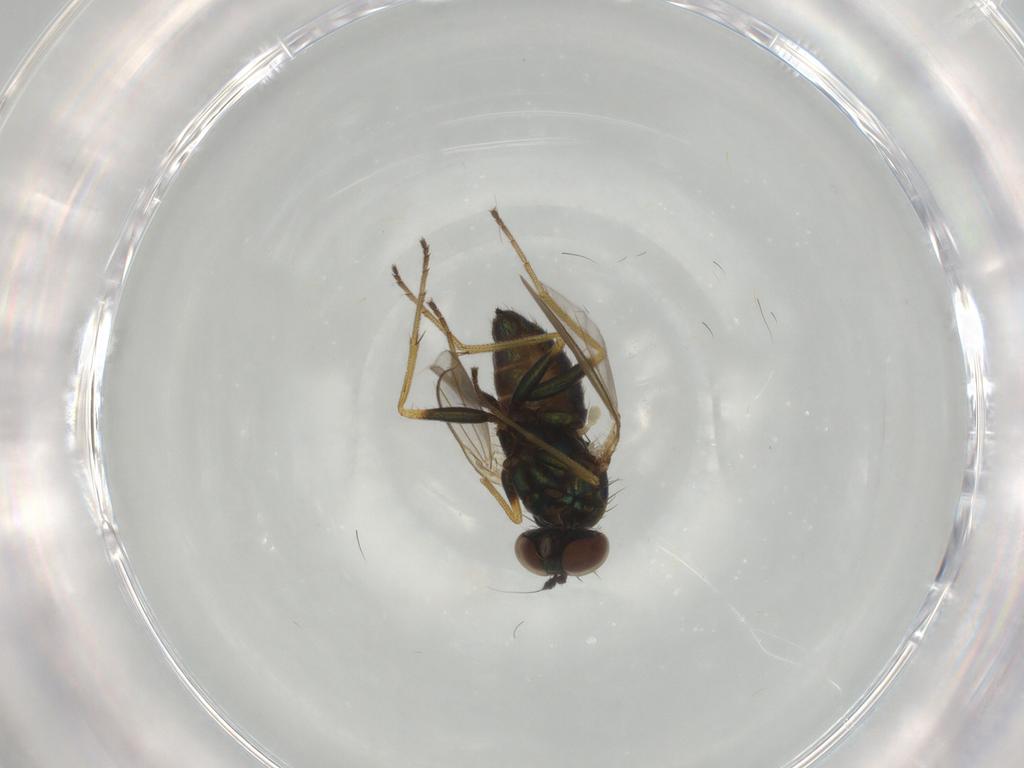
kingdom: Animalia
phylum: Arthropoda
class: Insecta
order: Diptera
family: Dolichopodidae
